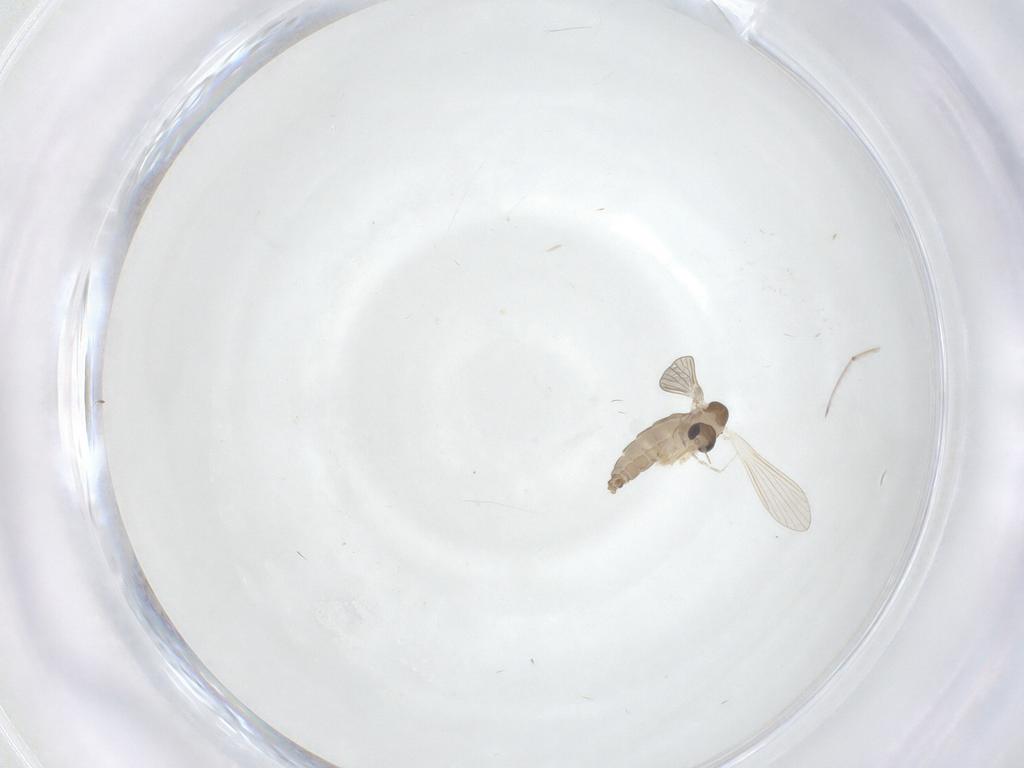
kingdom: Animalia
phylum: Arthropoda
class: Insecta
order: Diptera
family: Psychodidae
